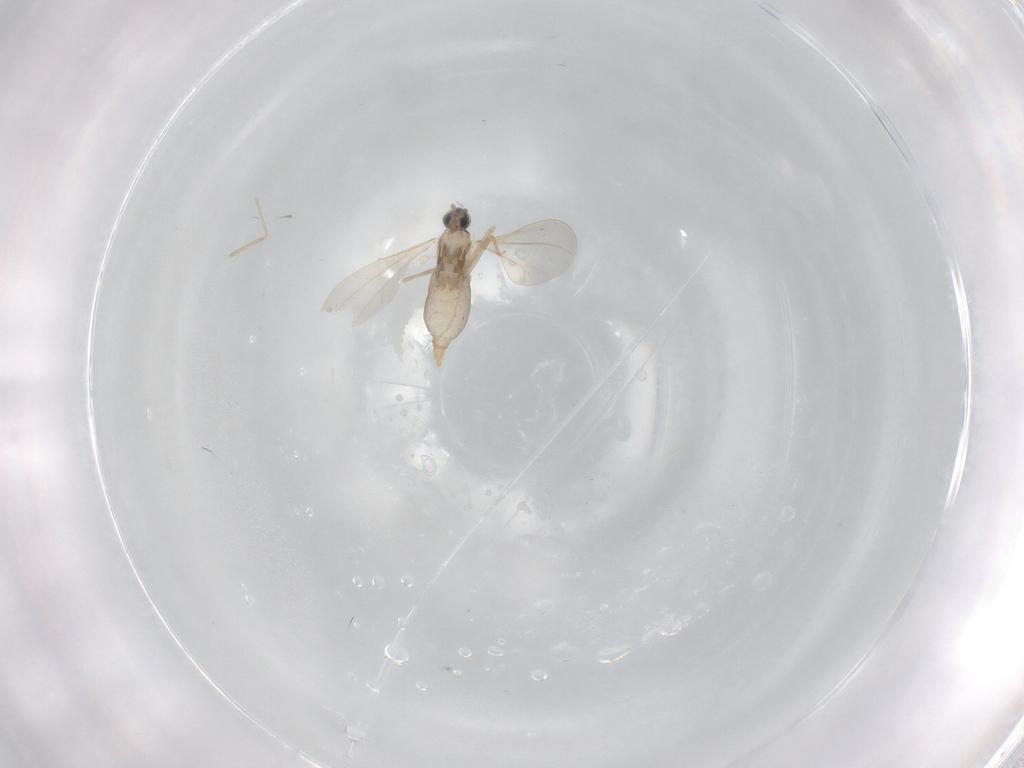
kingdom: Animalia
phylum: Arthropoda
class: Insecta
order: Diptera
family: Cecidomyiidae
